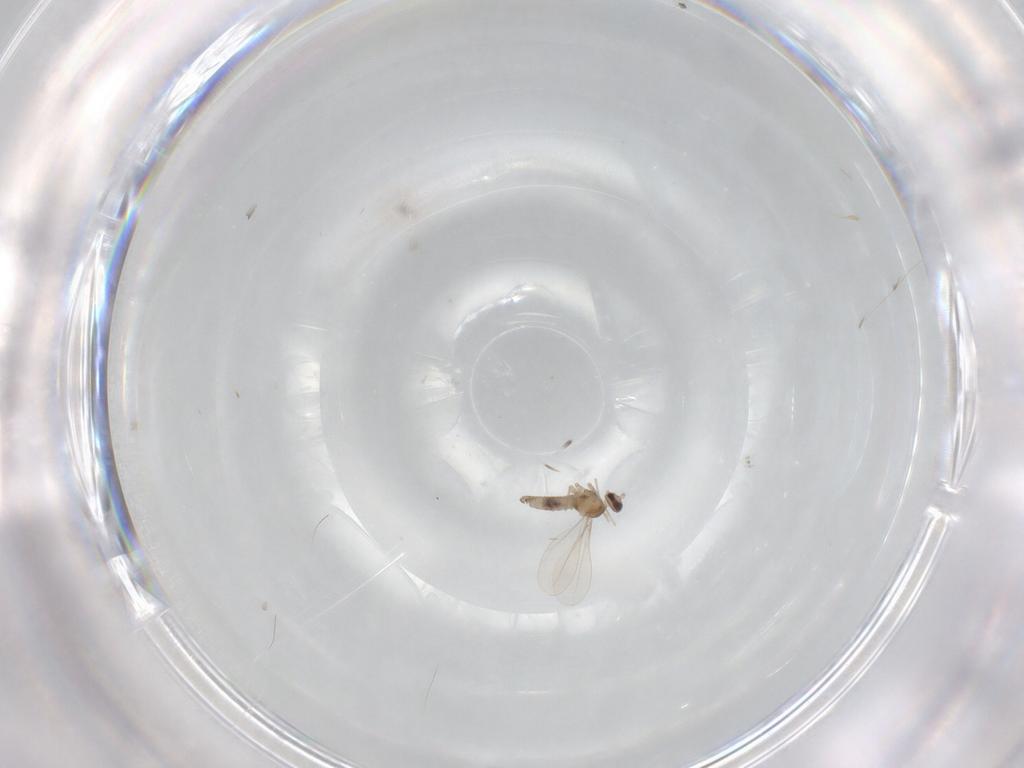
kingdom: Animalia
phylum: Arthropoda
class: Insecta
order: Diptera
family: Cecidomyiidae
